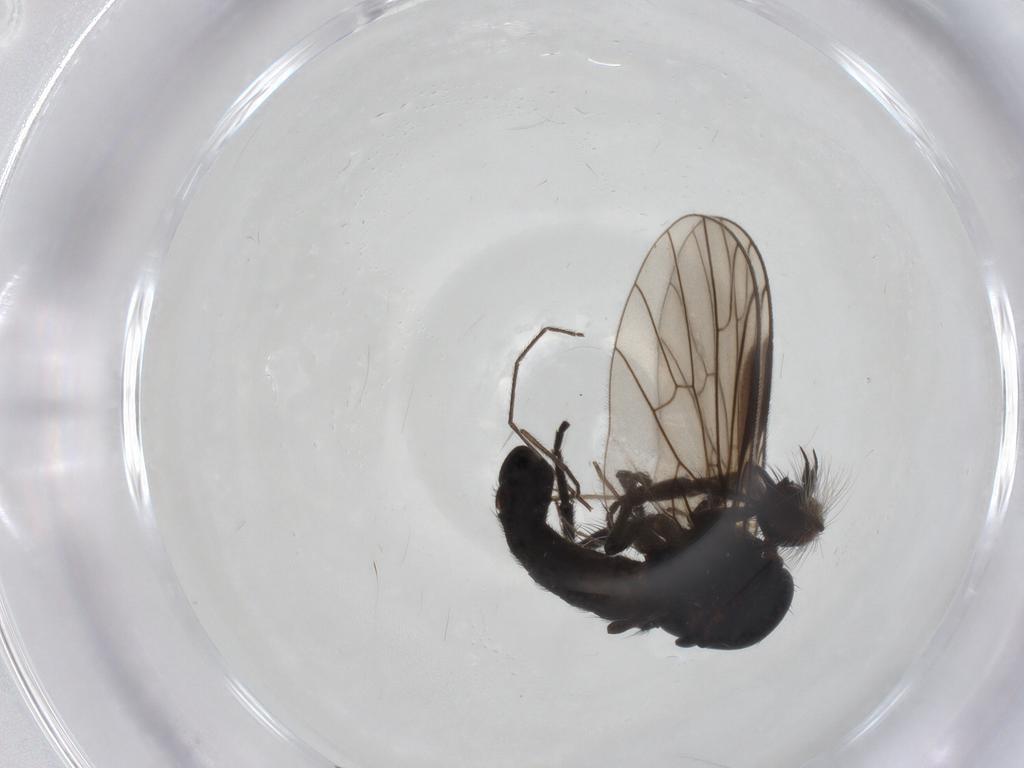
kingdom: Animalia
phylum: Arthropoda
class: Insecta
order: Diptera
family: Empididae
